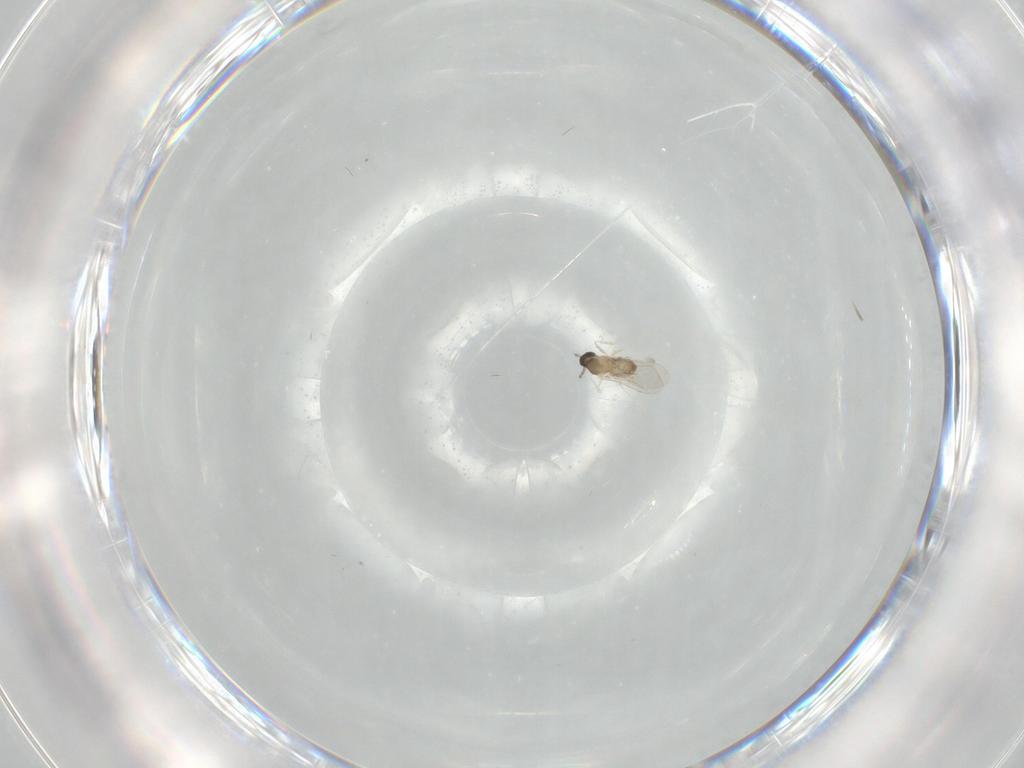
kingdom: Animalia
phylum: Arthropoda
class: Insecta
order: Diptera
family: Cecidomyiidae
